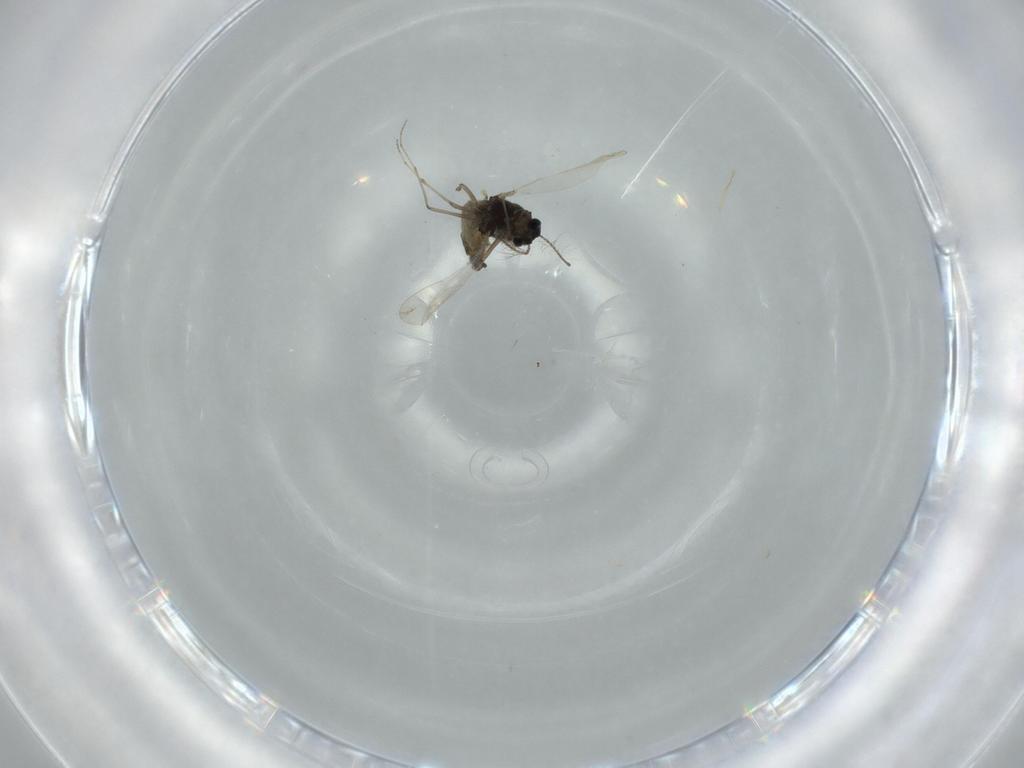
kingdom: Animalia
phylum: Arthropoda
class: Insecta
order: Diptera
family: Chironomidae
